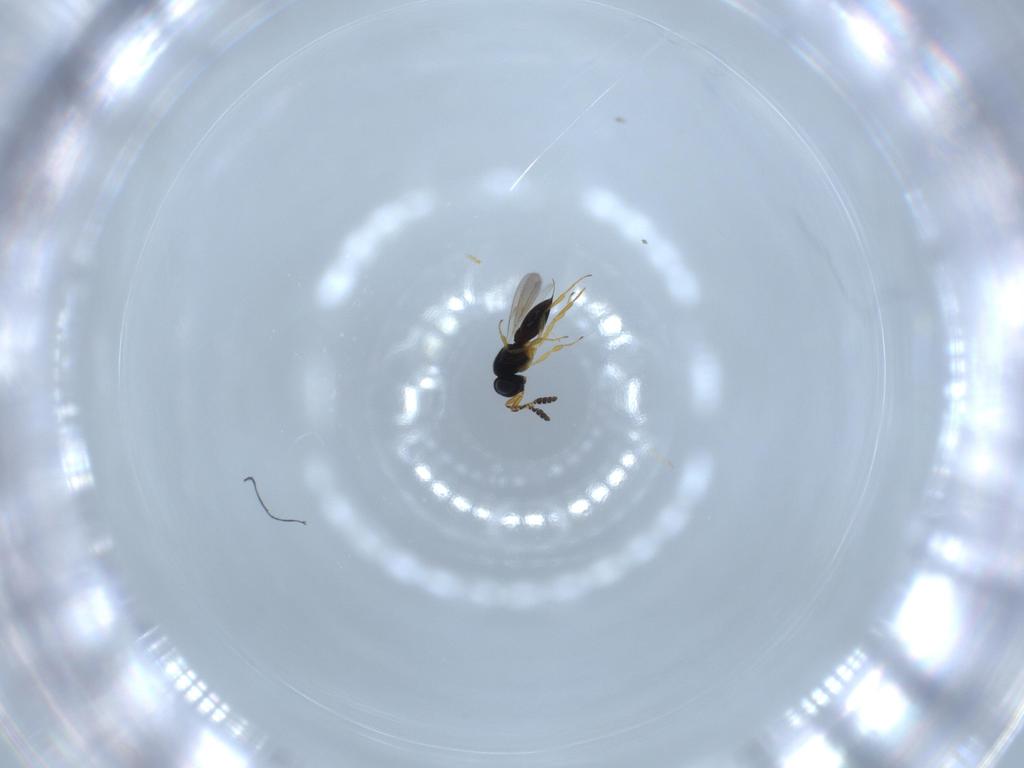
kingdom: Animalia
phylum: Arthropoda
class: Insecta
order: Hymenoptera
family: Scelionidae
